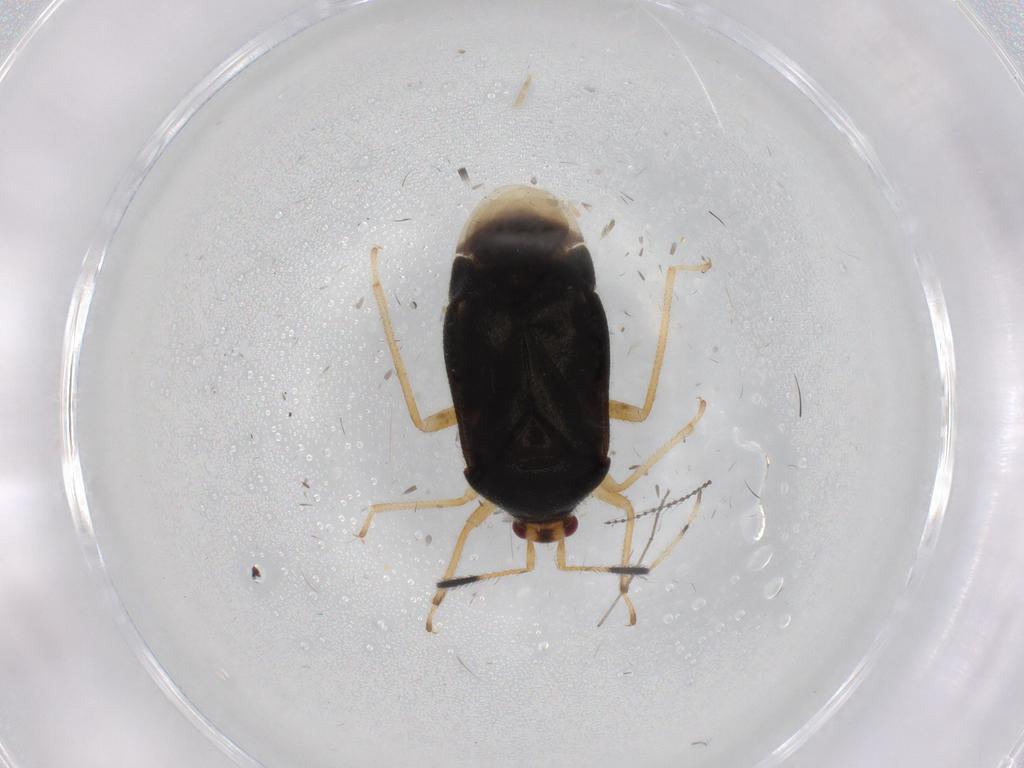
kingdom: Animalia
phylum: Arthropoda
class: Insecta
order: Hemiptera
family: Miridae
